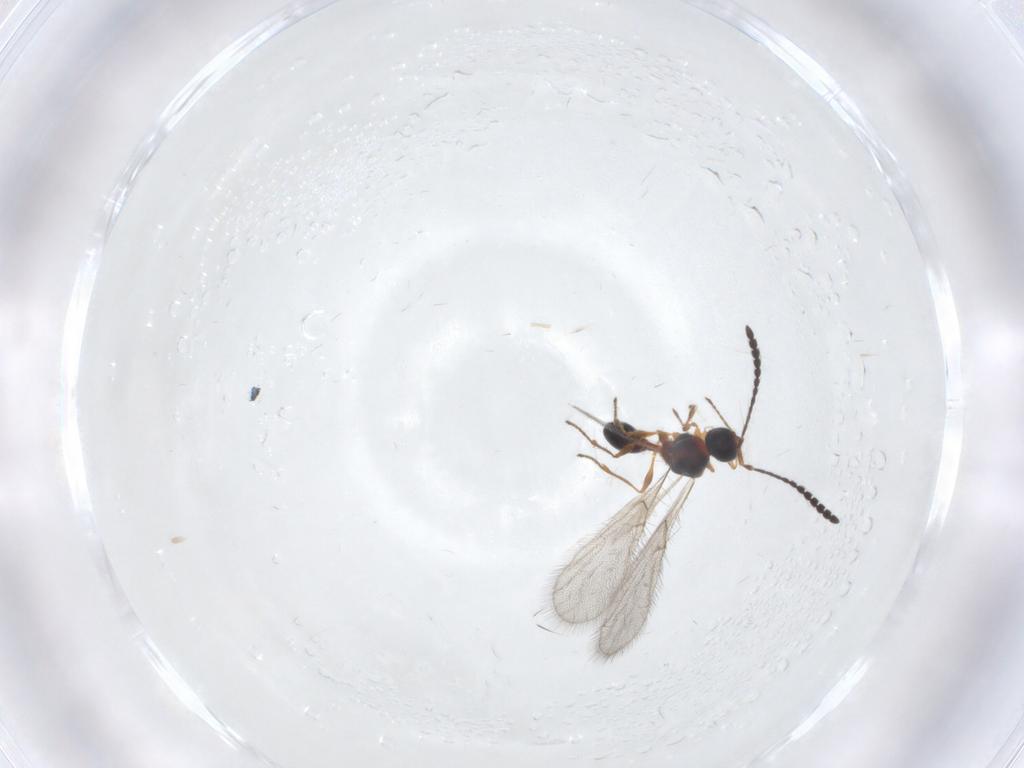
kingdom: Animalia
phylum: Arthropoda
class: Insecta
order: Hymenoptera
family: Diapriidae
